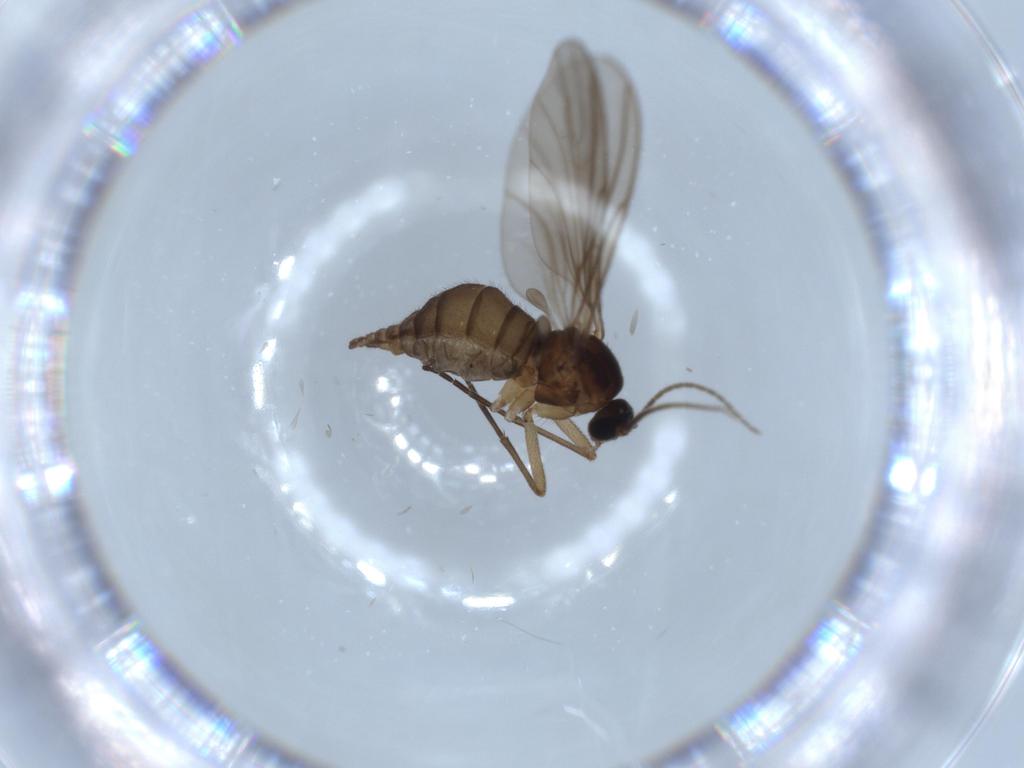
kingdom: Animalia
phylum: Arthropoda
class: Insecta
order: Diptera
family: Sciaridae
